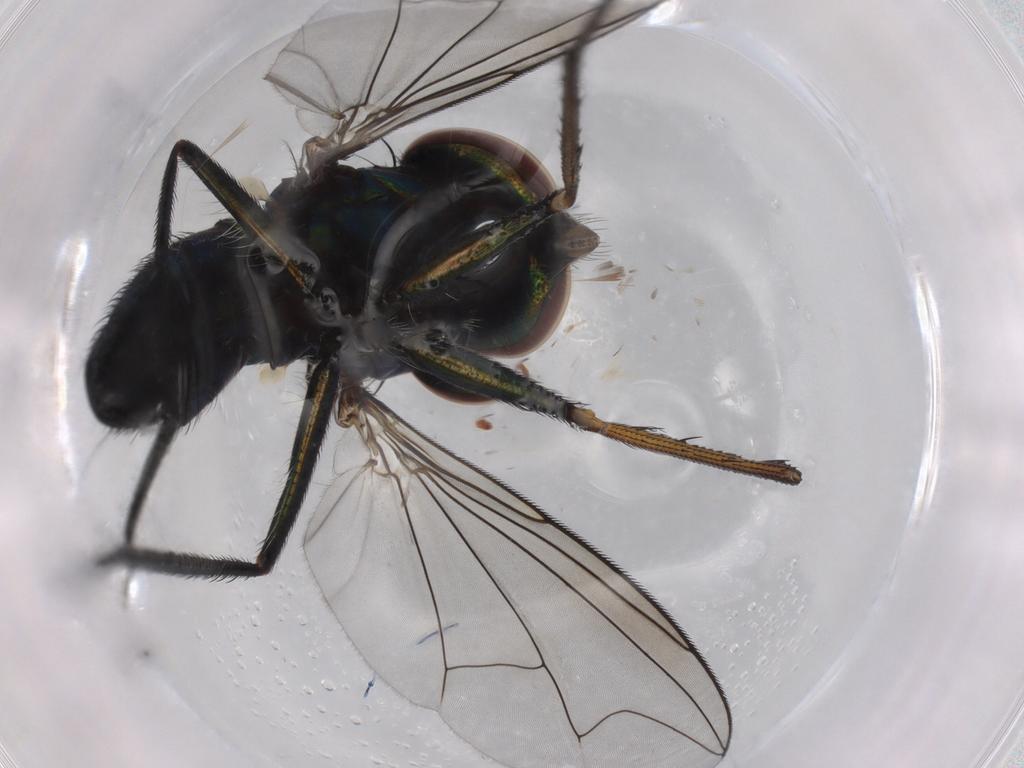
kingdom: Animalia
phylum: Arthropoda
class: Insecta
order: Diptera
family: Dolichopodidae
